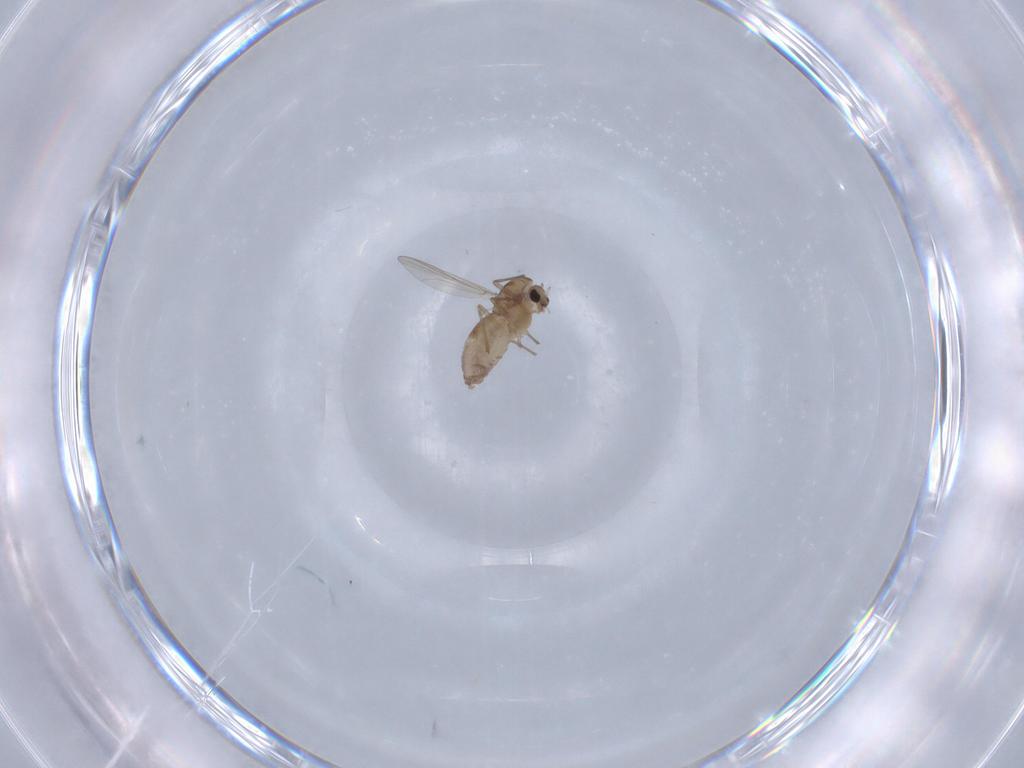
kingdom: Animalia
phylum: Arthropoda
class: Insecta
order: Diptera
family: Chironomidae
